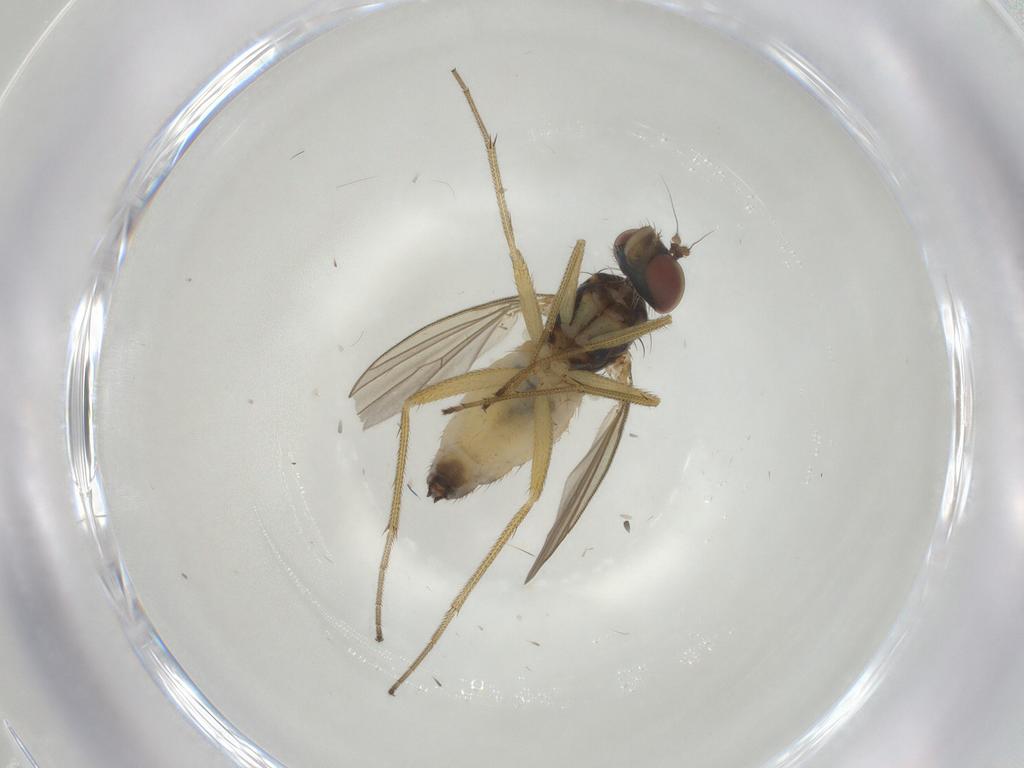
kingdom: Animalia
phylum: Arthropoda
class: Insecta
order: Diptera
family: Dolichopodidae
